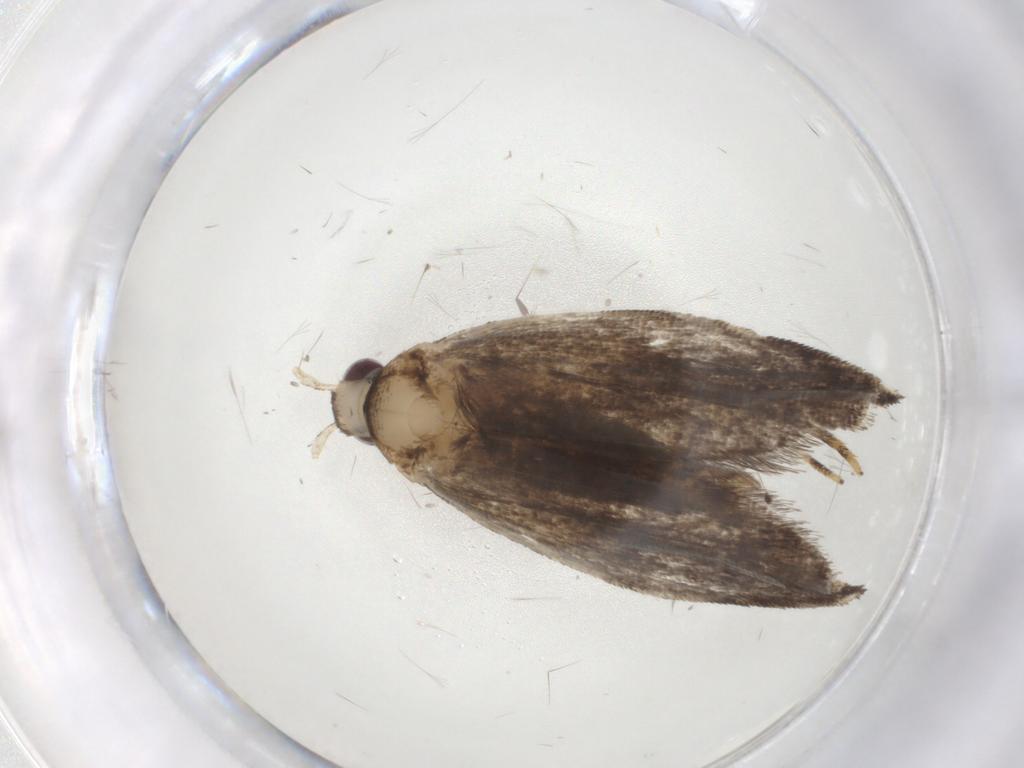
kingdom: Animalia
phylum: Arthropoda
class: Insecta
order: Lepidoptera
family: Gelechiidae
